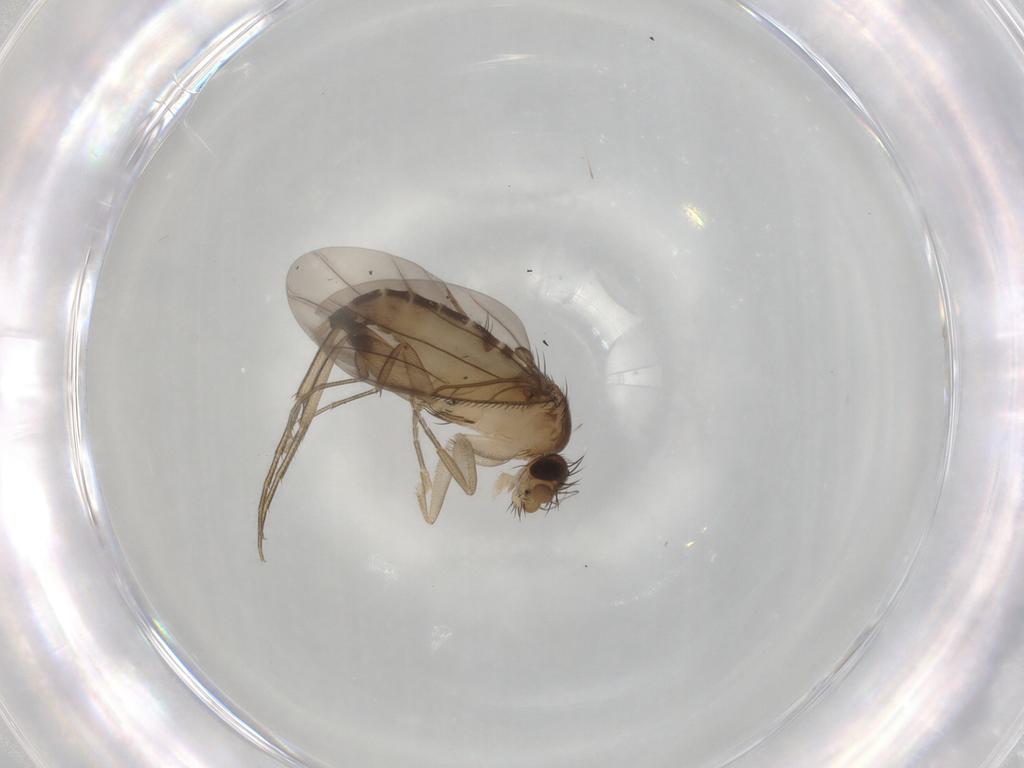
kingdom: Animalia
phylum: Arthropoda
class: Insecta
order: Diptera
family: Phoridae
